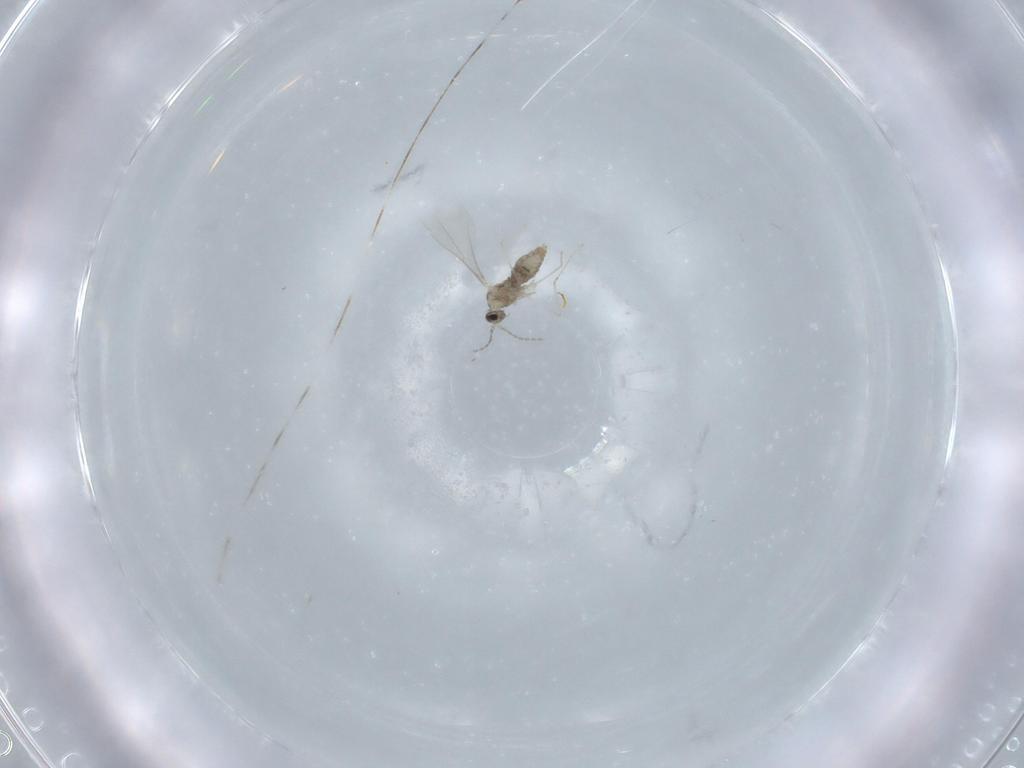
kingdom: Animalia
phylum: Arthropoda
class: Insecta
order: Diptera
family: Cecidomyiidae
